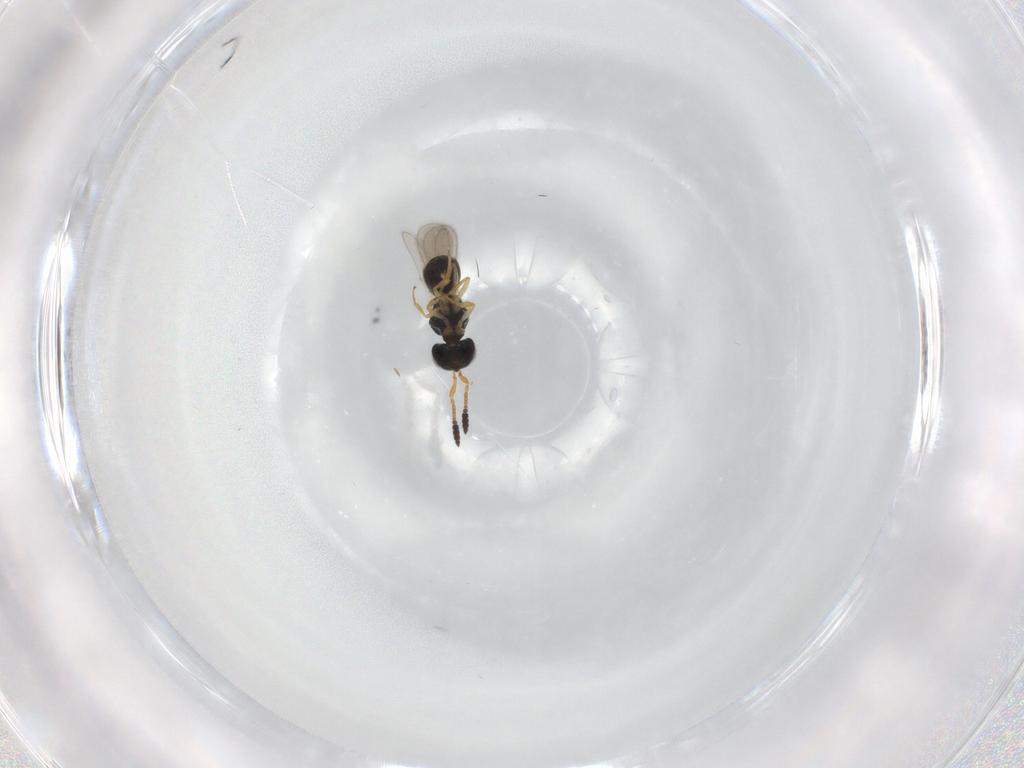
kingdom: Animalia
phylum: Arthropoda
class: Insecta
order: Hymenoptera
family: Scelionidae
